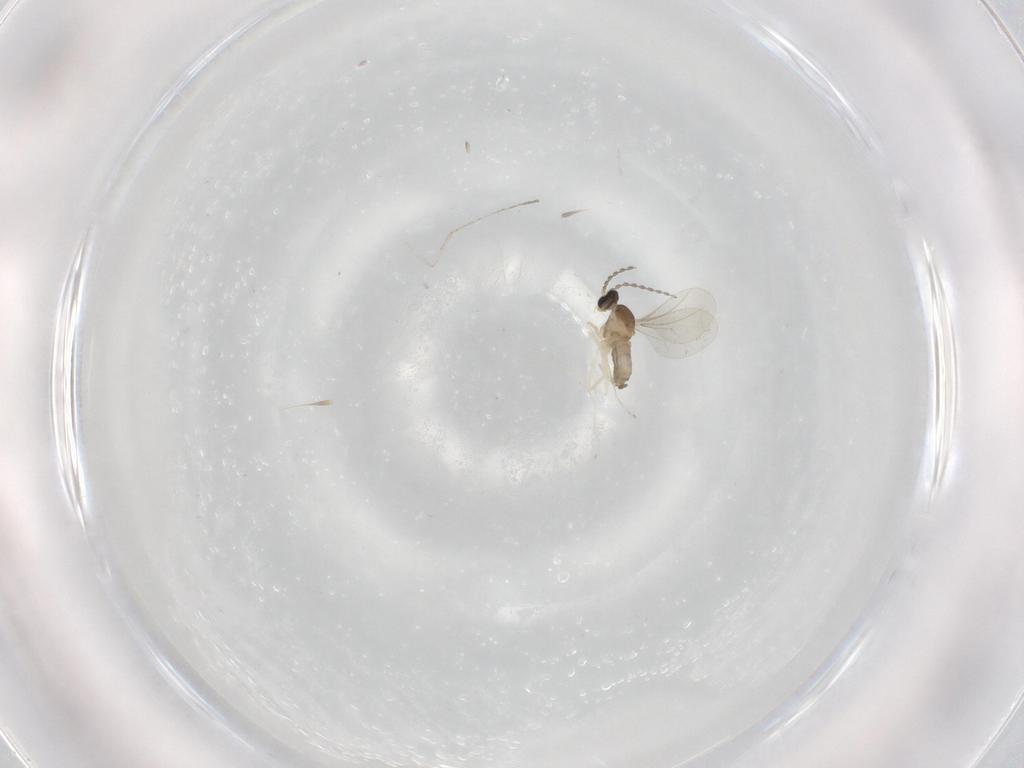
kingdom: Animalia
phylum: Arthropoda
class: Insecta
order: Diptera
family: Cecidomyiidae
